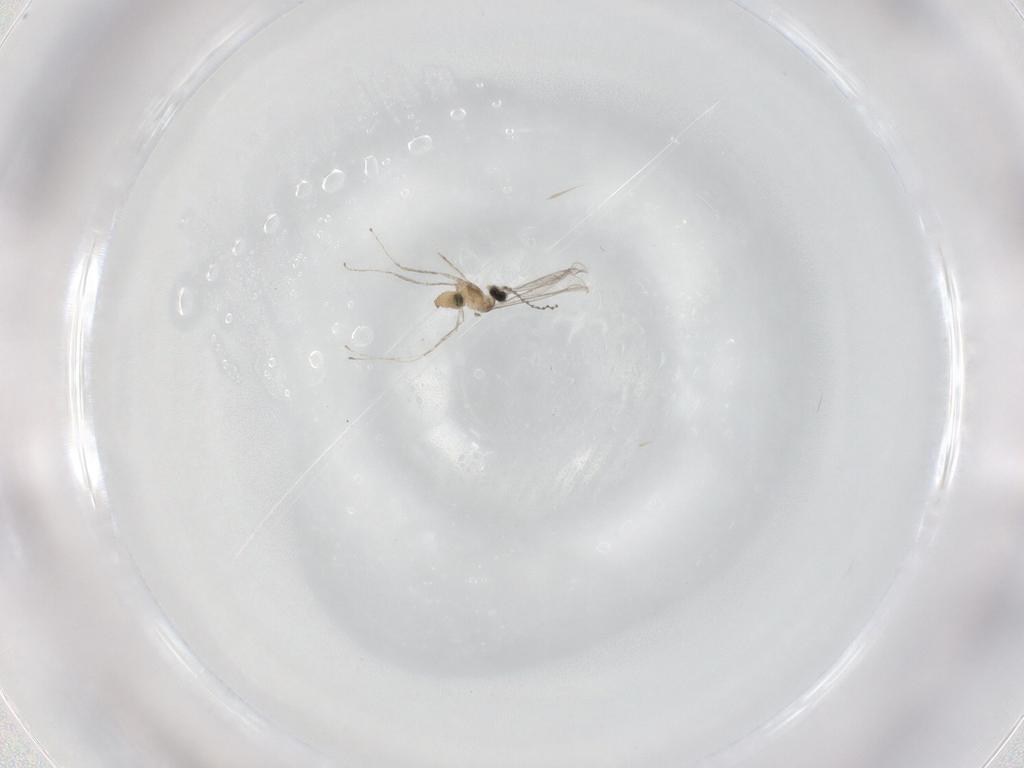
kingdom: Animalia
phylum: Arthropoda
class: Insecta
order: Diptera
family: Cecidomyiidae
